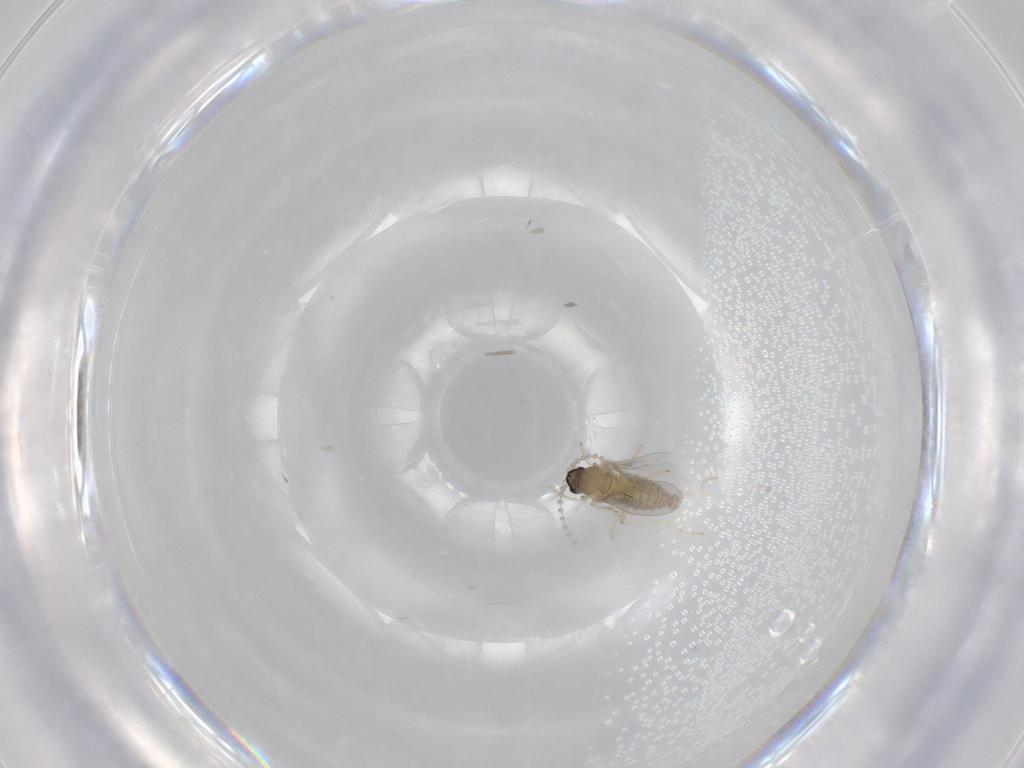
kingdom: Animalia
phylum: Arthropoda
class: Insecta
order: Diptera
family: Cecidomyiidae
